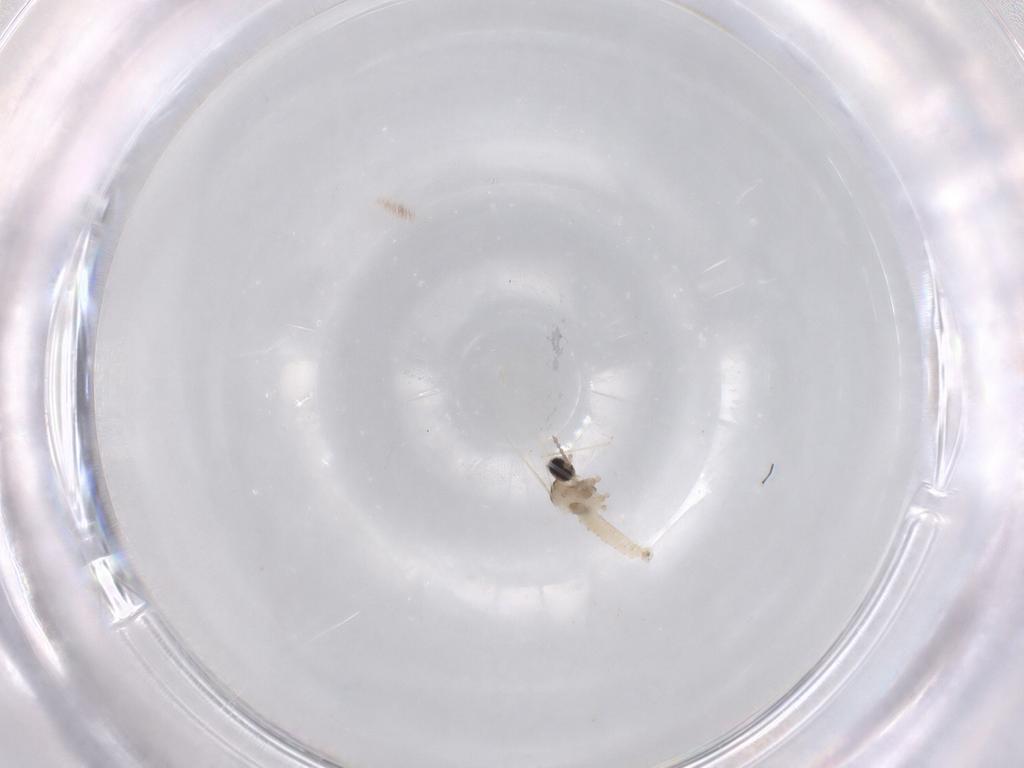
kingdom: Animalia
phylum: Arthropoda
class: Insecta
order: Diptera
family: Cecidomyiidae
